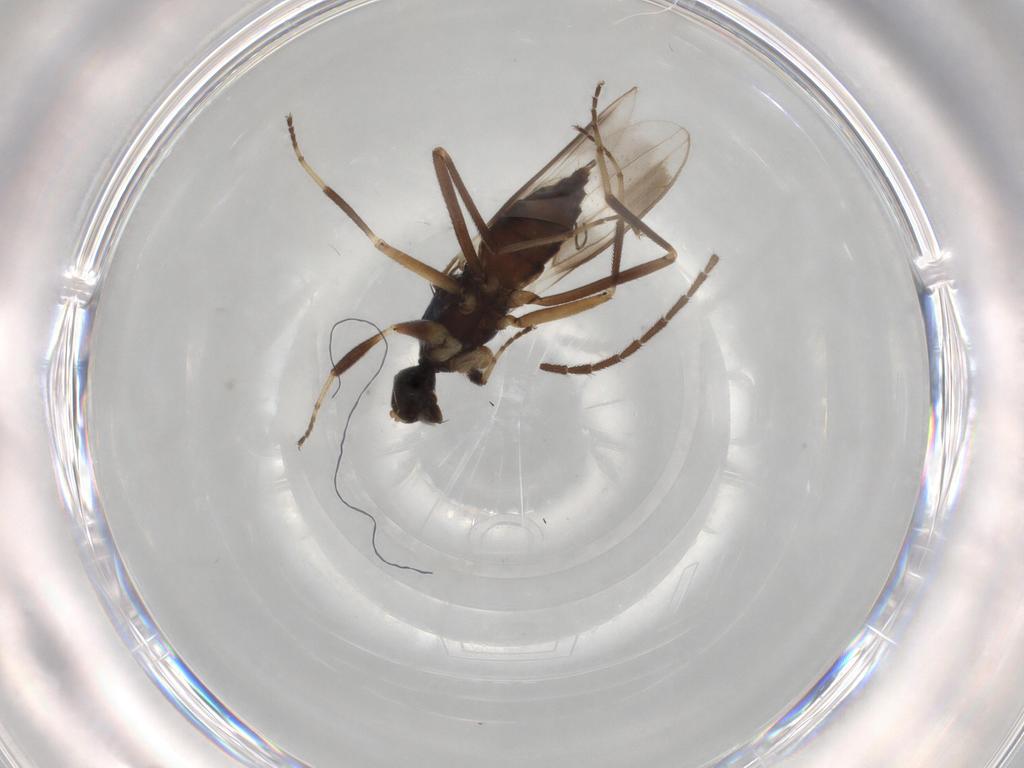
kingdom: Animalia
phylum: Arthropoda
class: Insecta
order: Diptera
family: Hybotidae
